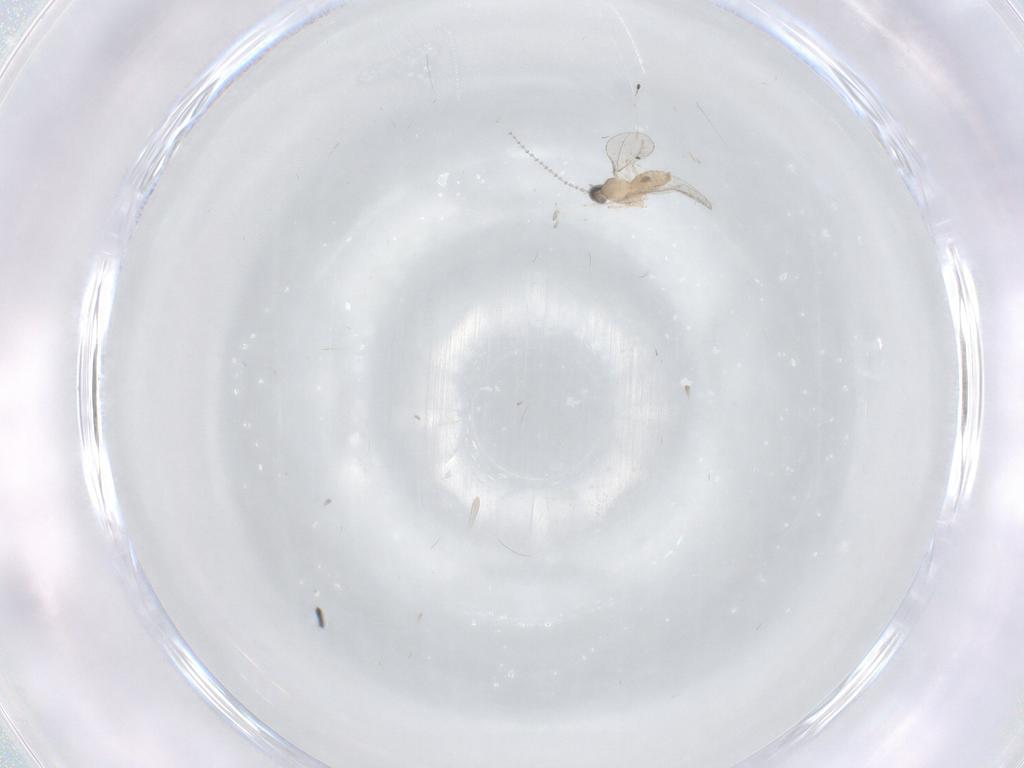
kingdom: Animalia
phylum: Arthropoda
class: Insecta
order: Diptera
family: Cecidomyiidae
